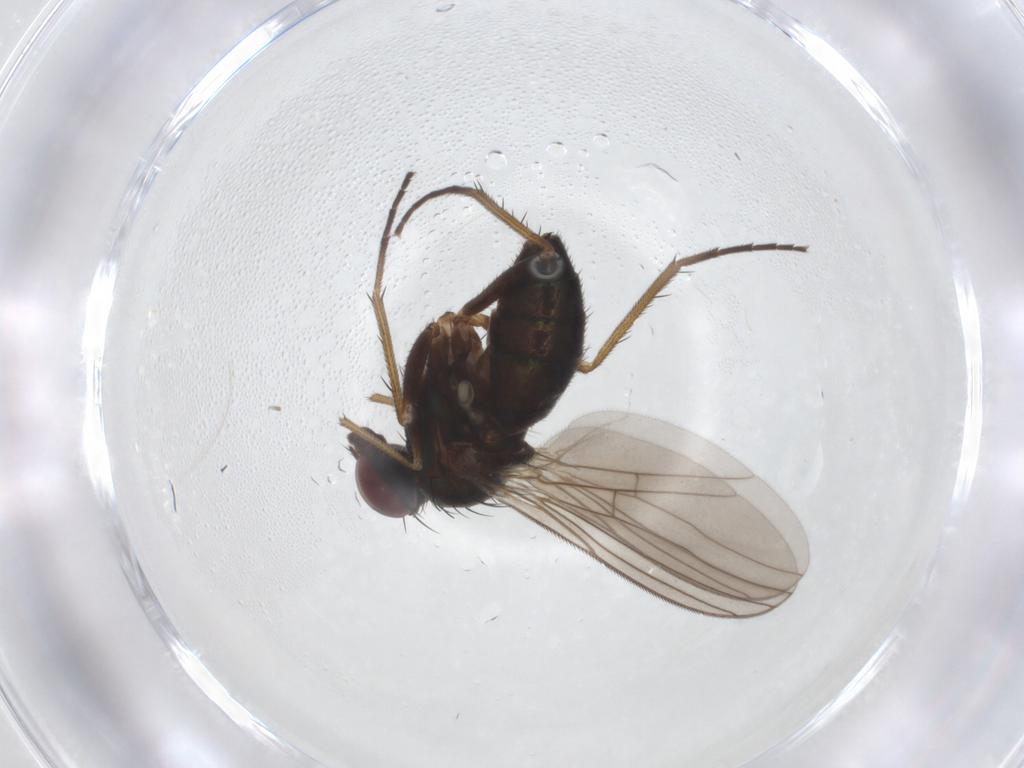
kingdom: Animalia
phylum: Arthropoda
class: Insecta
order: Diptera
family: Dolichopodidae
